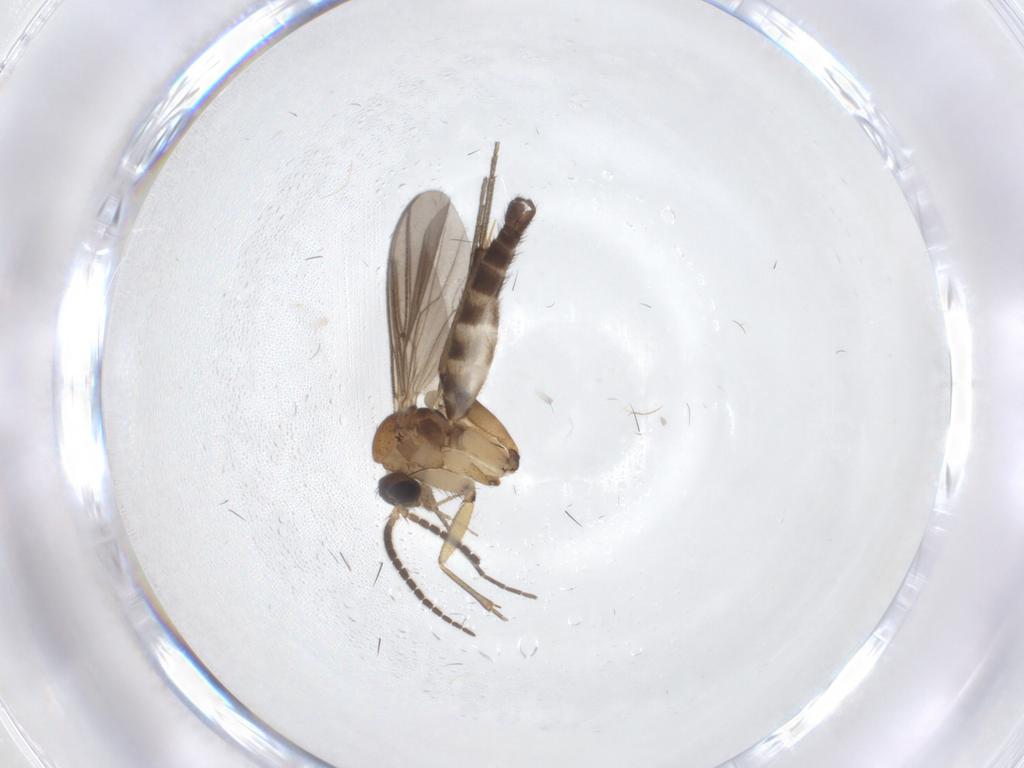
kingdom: Animalia
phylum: Arthropoda
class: Insecta
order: Diptera
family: Mycetophilidae
